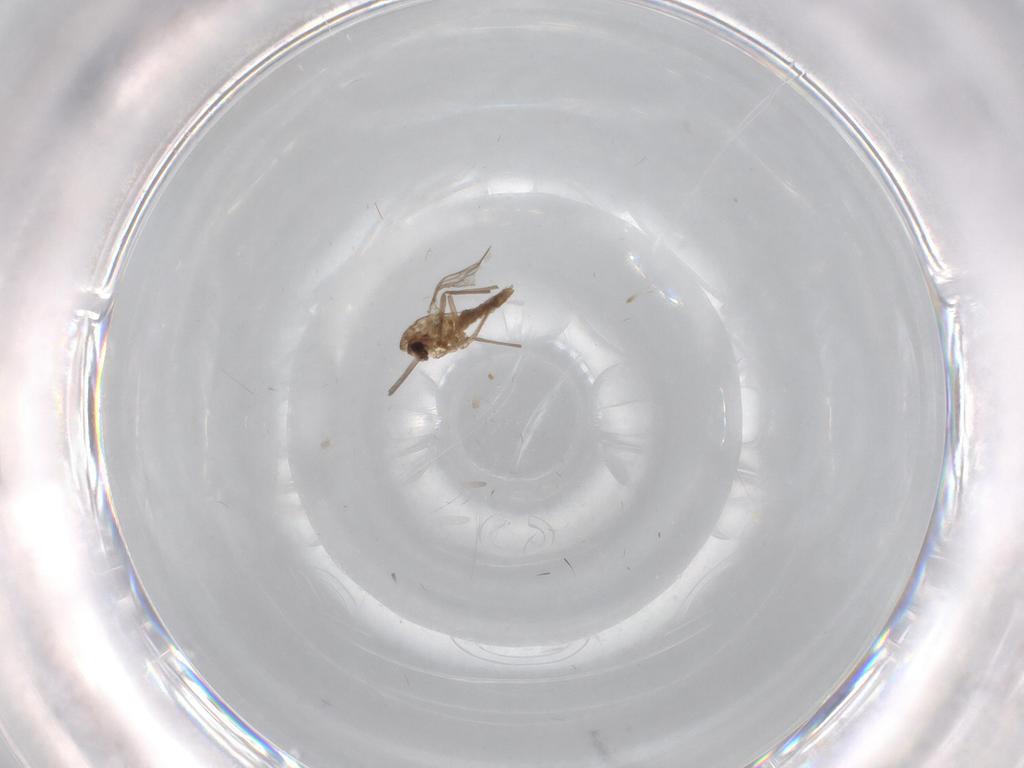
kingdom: Animalia
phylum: Arthropoda
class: Insecta
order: Diptera
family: Chironomidae
